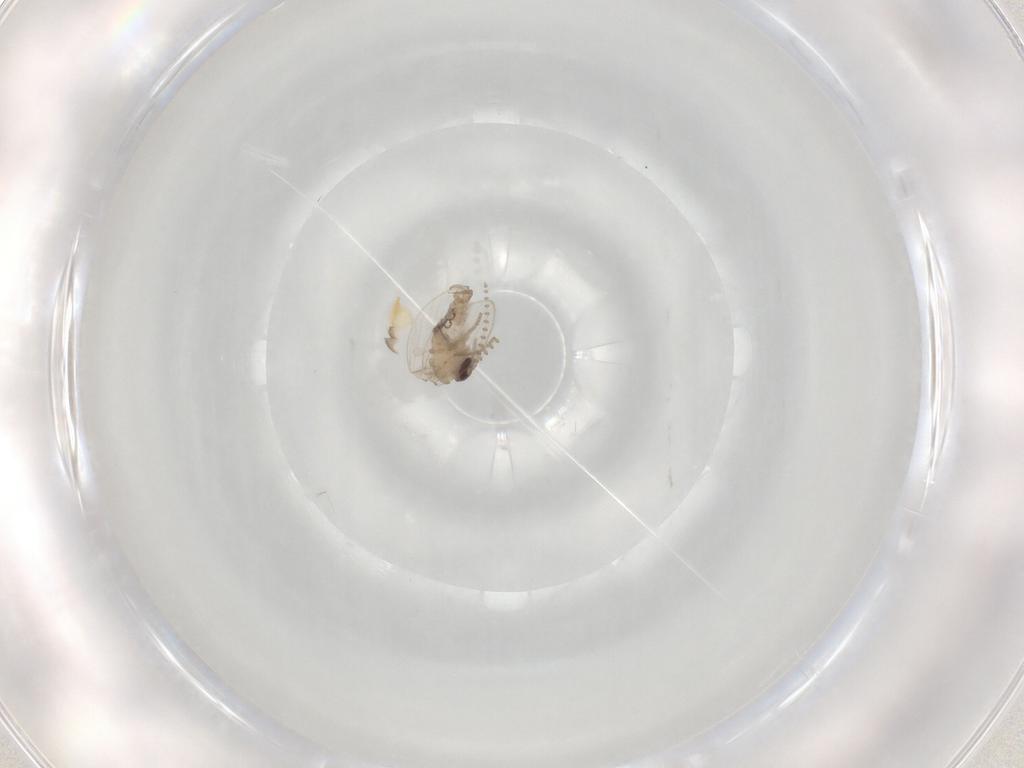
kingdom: Animalia
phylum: Arthropoda
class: Insecta
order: Diptera
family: Psychodidae
